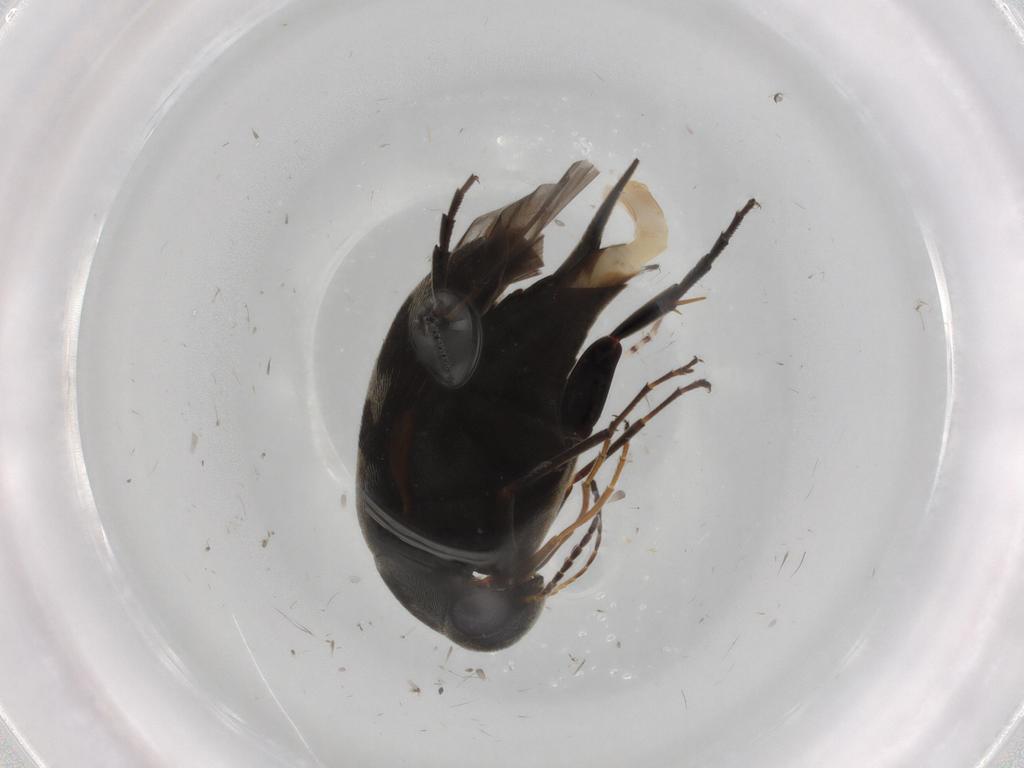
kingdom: Animalia
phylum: Arthropoda
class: Insecta
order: Coleoptera
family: Cerambycidae
